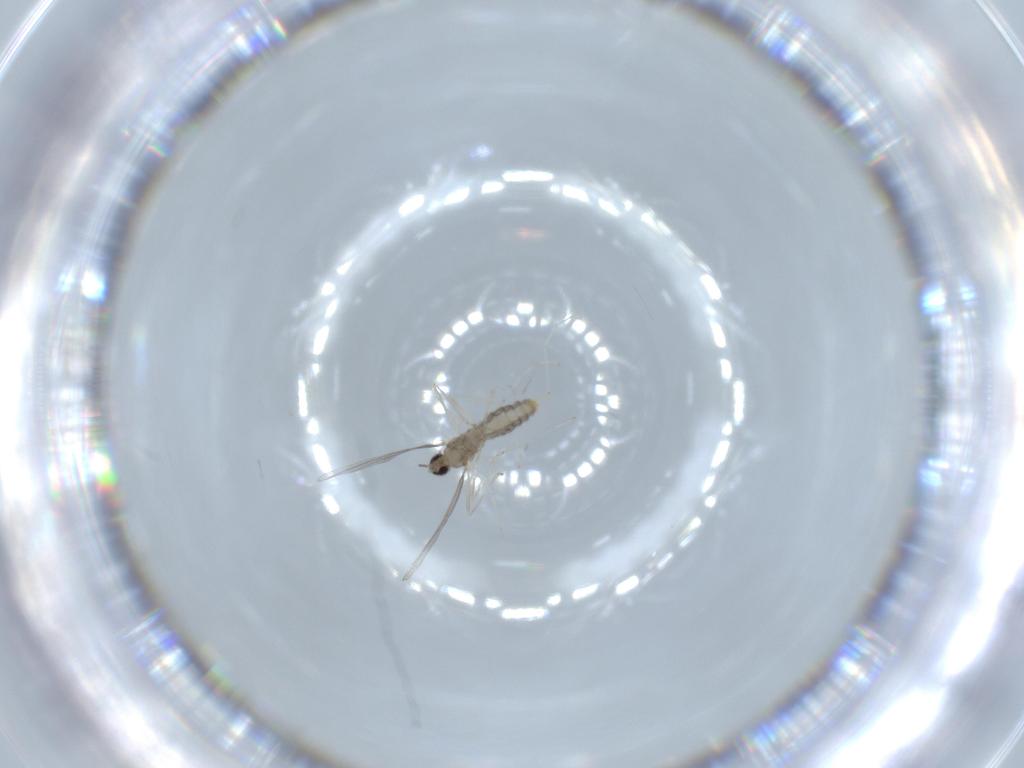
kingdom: Animalia
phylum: Arthropoda
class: Insecta
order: Diptera
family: Cecidomyiidae
